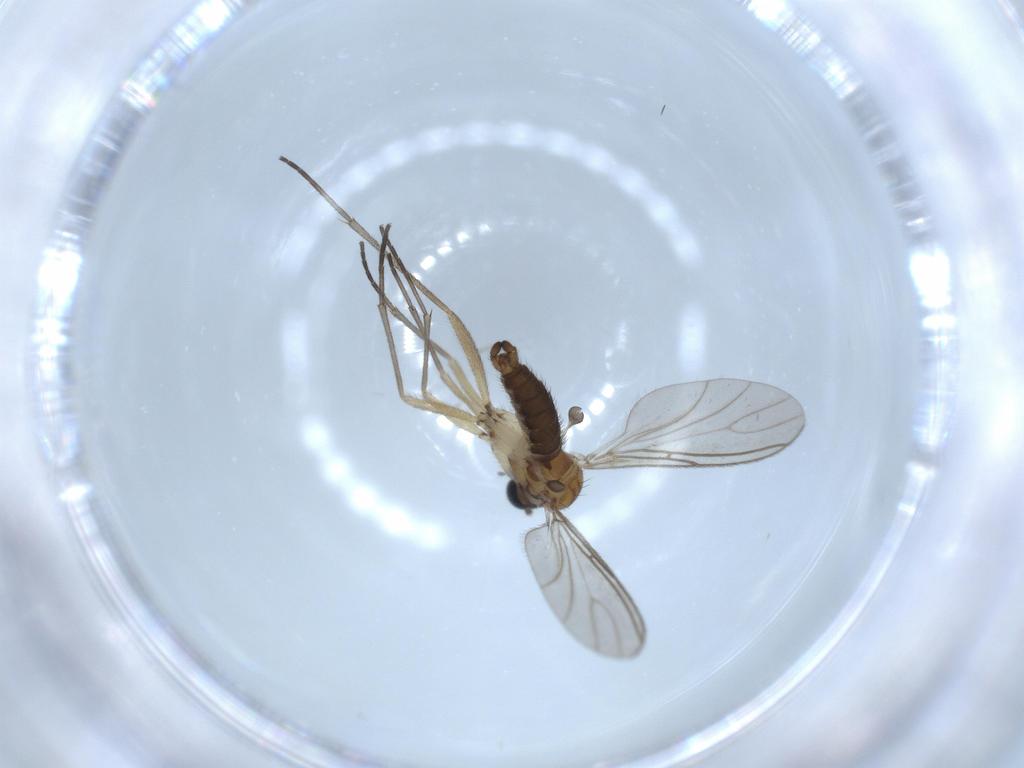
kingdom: Animalia
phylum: Arthropoda
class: Insecta
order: Diptera
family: Sciaridae
